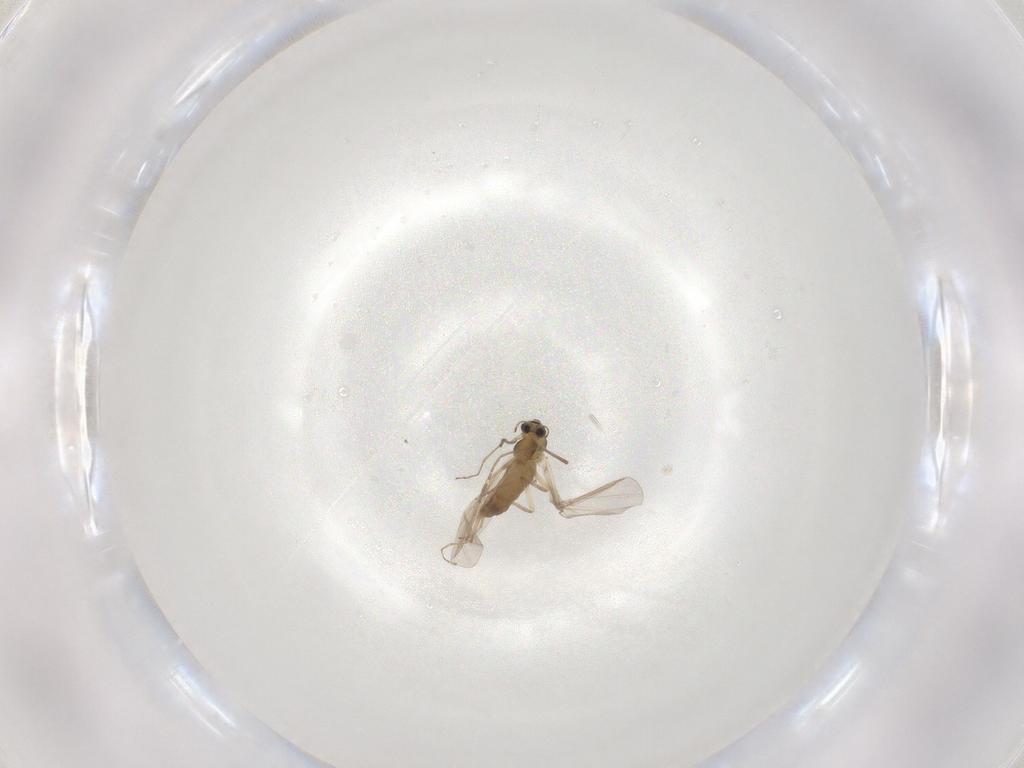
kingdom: Animalia
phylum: Arthropoda
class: Insecta
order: Diptera
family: Chironomidae
